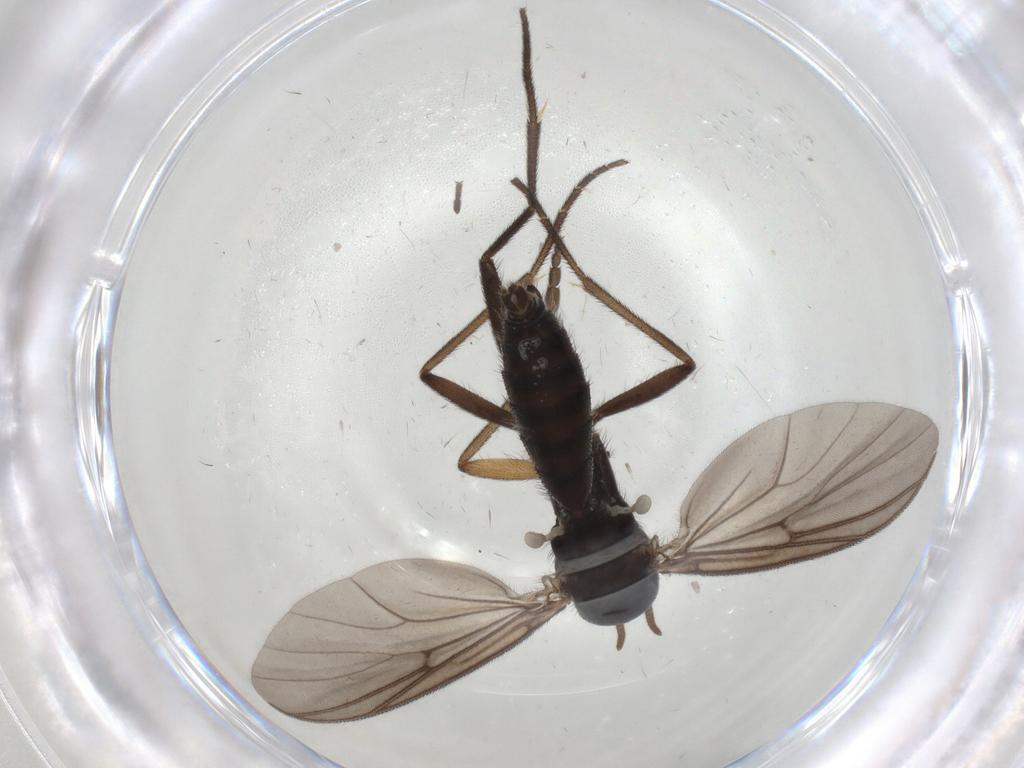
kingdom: Animalia
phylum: Arthropoda
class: Insecta
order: Diptera
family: Mycetophilidae
